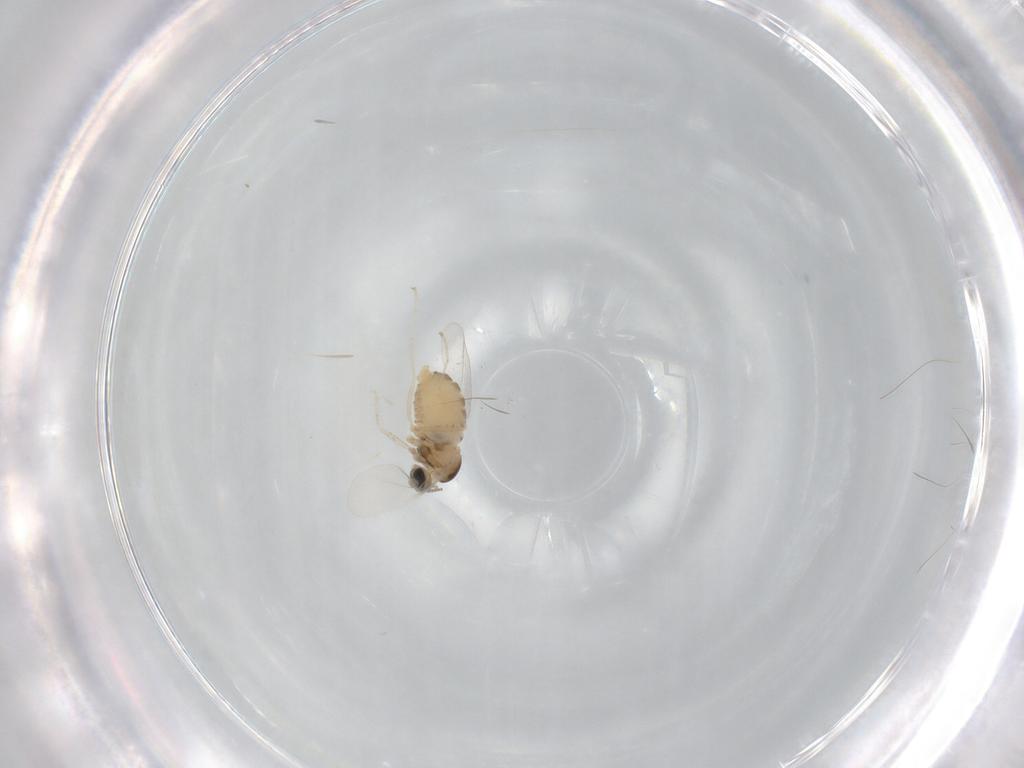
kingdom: Animalia
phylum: Arthropoda
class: Insecta
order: Diptera
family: Cecidomyiidae
